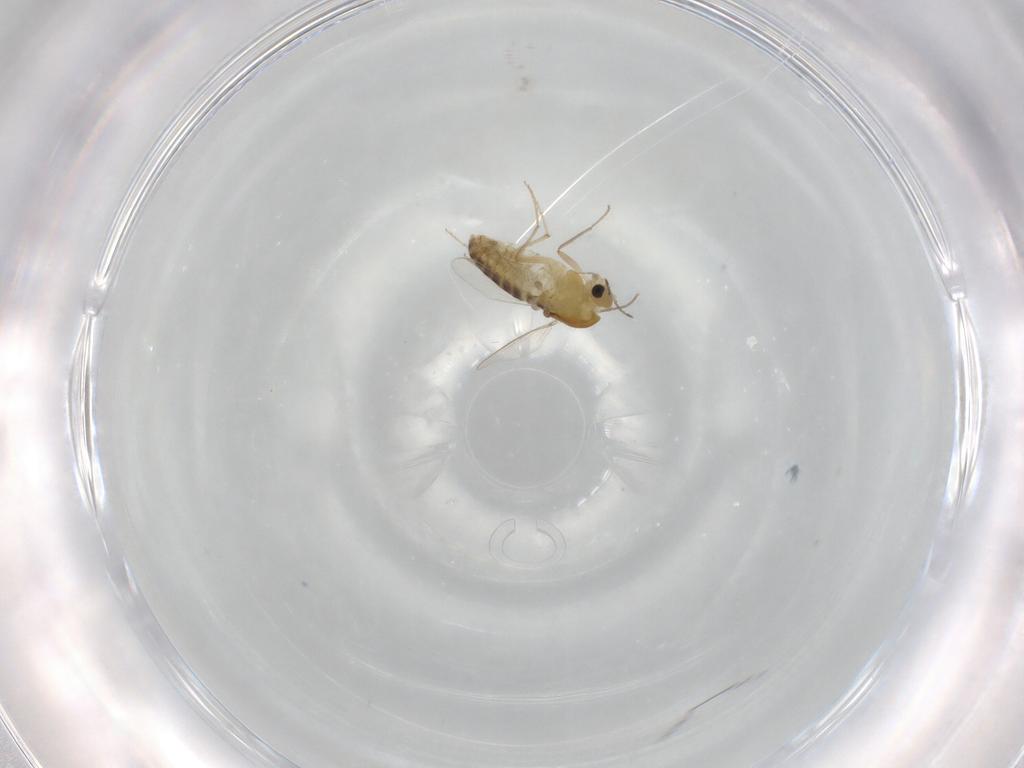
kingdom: Animalia
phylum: Arthropoda
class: Insecta
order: Diptera
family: Chironomidae
